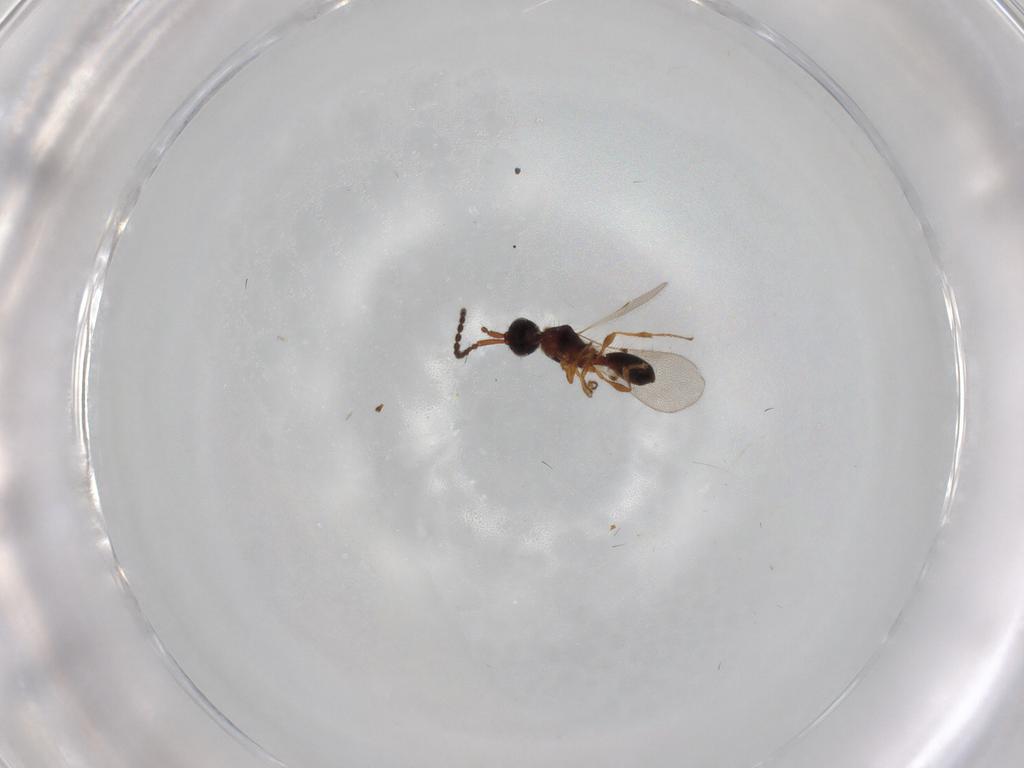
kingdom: Animalia
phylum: Arthropoda
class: Insecta
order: Hymenoptera
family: Diapriidae
